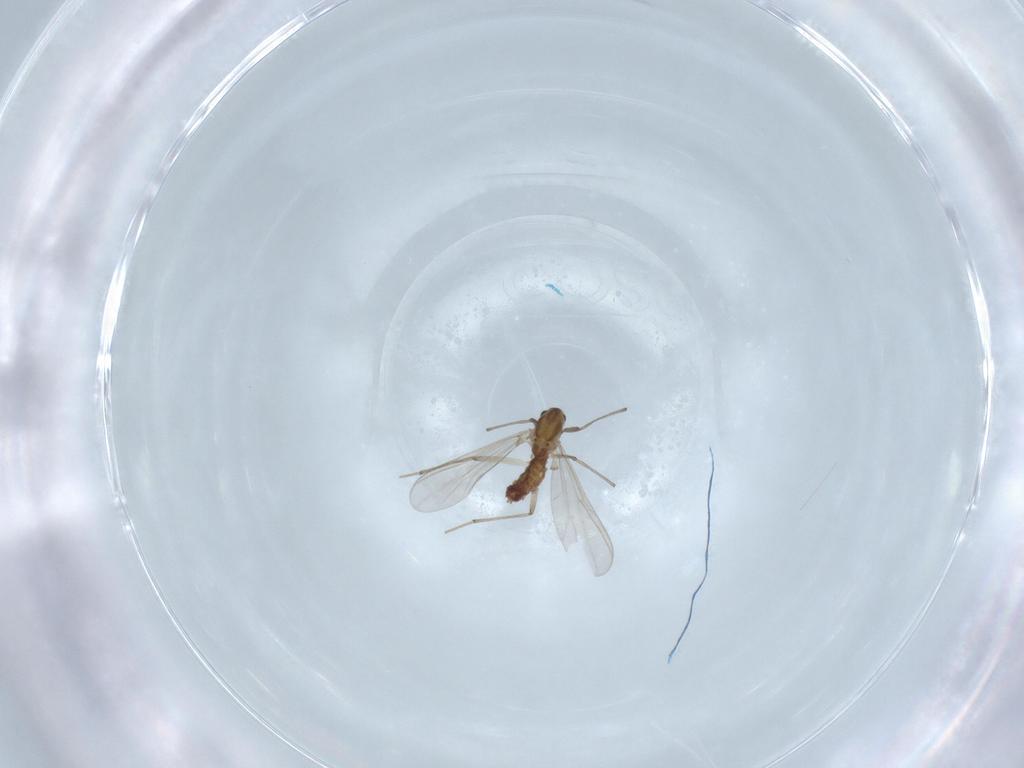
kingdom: Animalia
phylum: Arthropoda
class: Insecta
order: Diptera
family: Chironomidae
